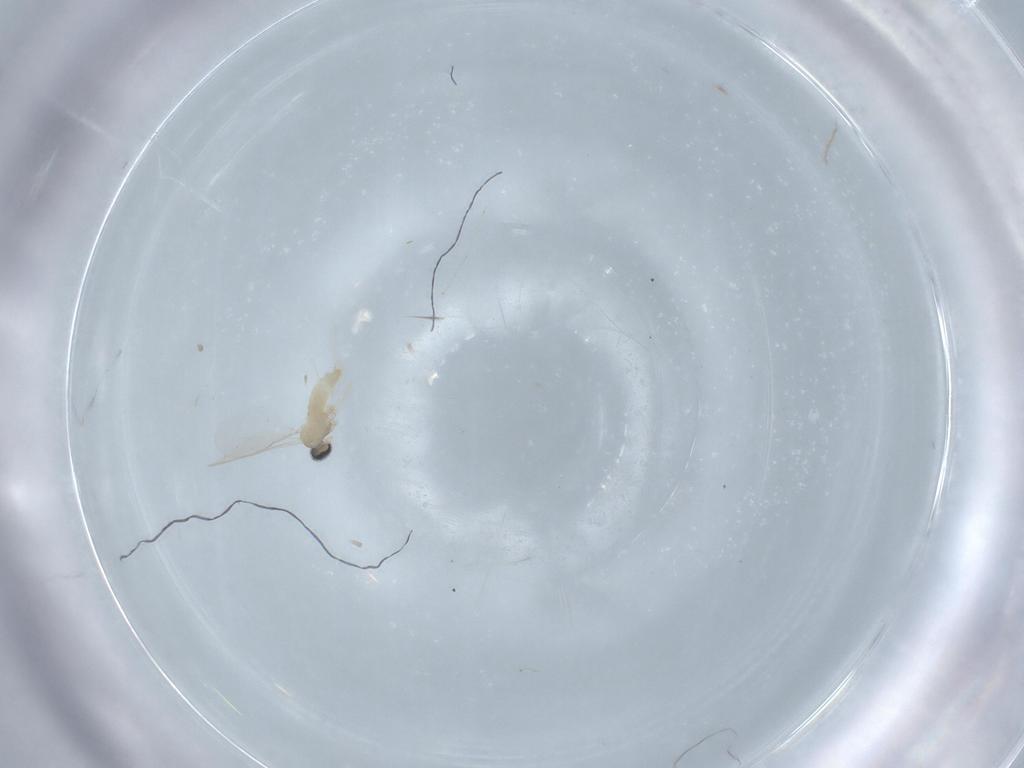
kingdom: Animalia
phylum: Arthropoda
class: Insecta
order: Diptera
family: Cecidomyiidae
